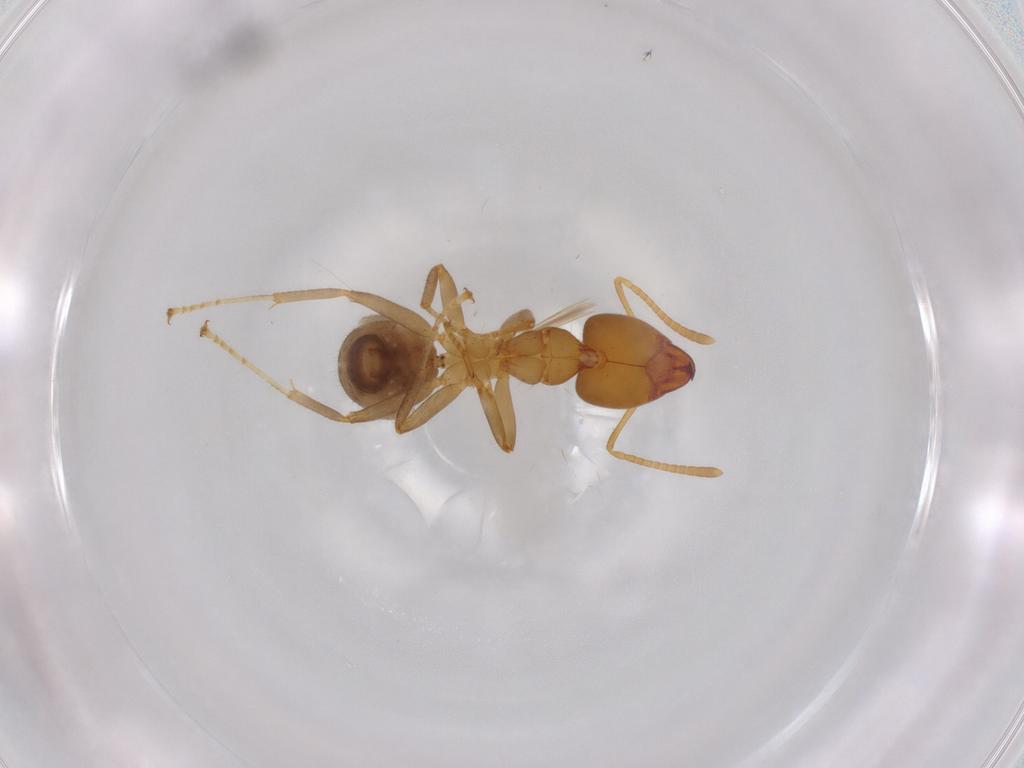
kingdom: Animalia
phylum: Arthropoda
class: Insecta
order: Hymenoptera
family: Formicidae
